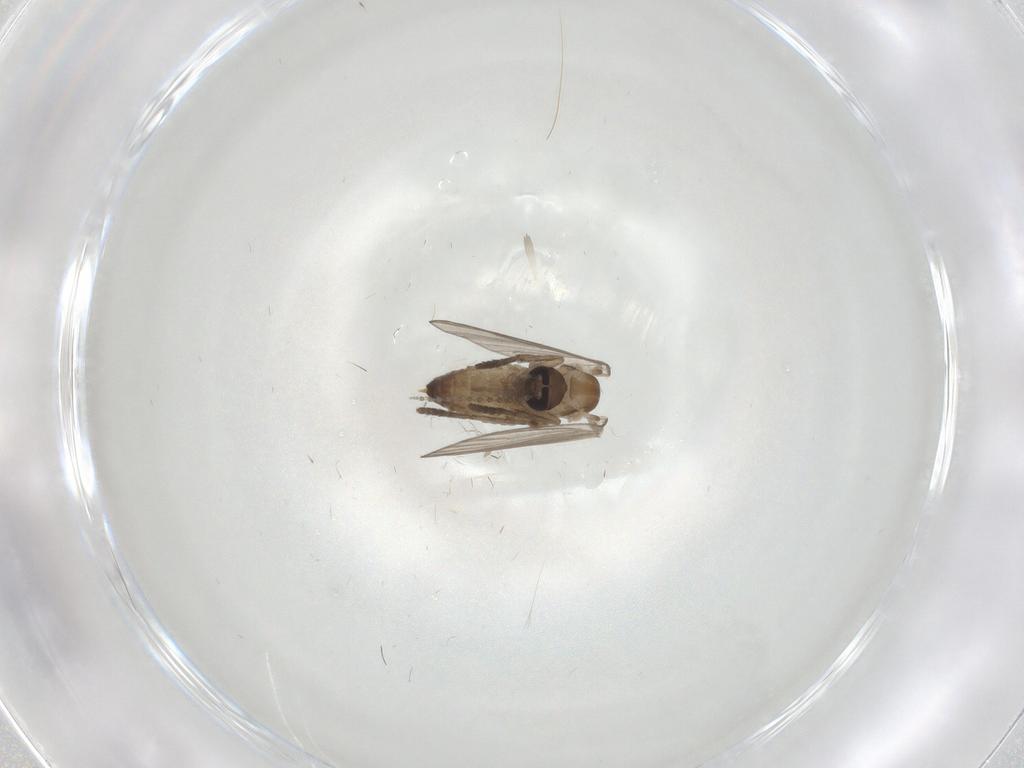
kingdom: Animalia
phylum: Arthropoda
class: Insecta
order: Diptera
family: Psychodidae
